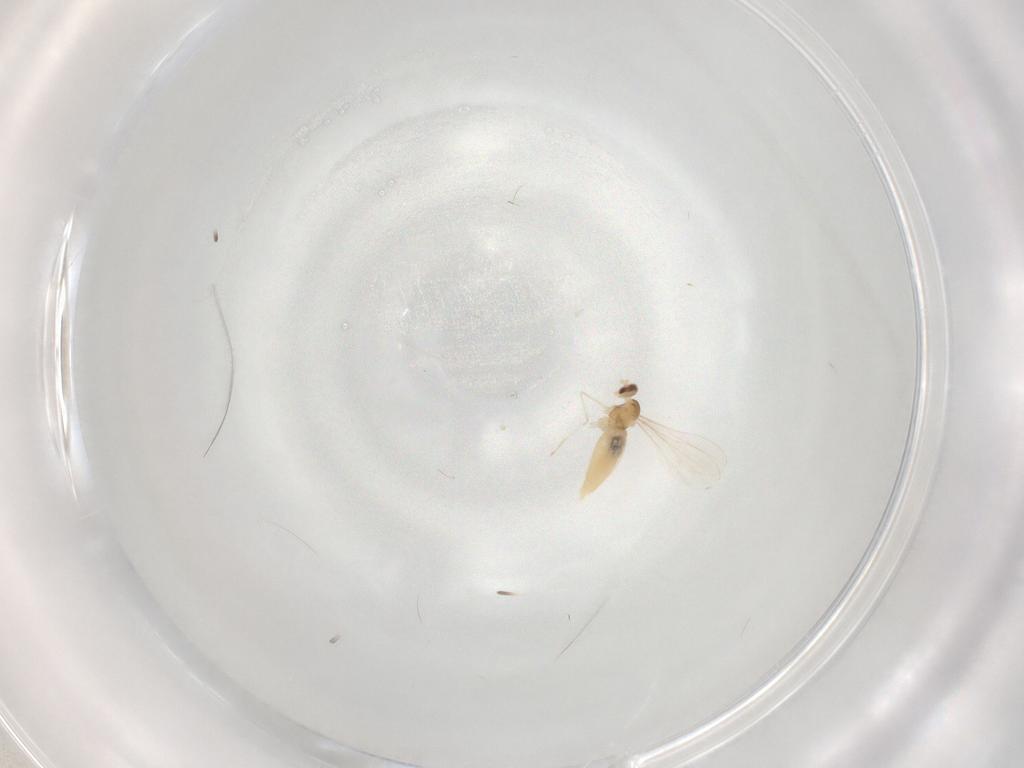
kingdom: Animalia
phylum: Arthropoda
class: Insecta
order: Diptera
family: Cecidomyiidae
